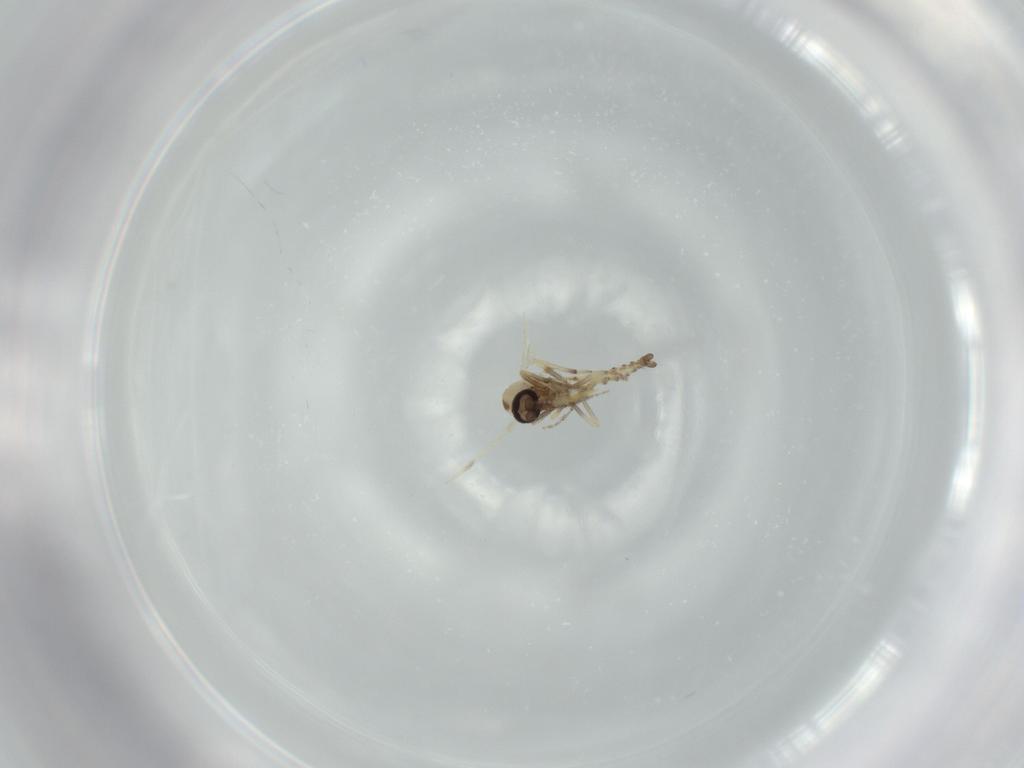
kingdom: Animalia
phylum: Arthropoda
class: Insecta
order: Diptera
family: Ceratopogonidae
